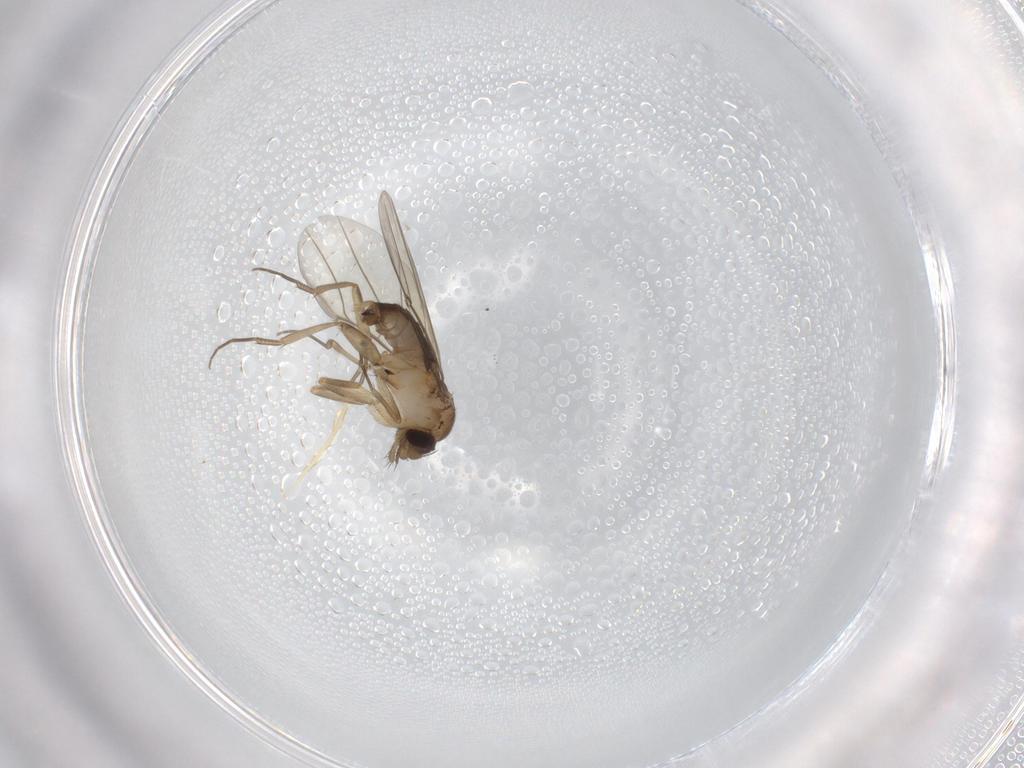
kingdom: Animalia
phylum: Arthropoda
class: Insecta
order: Diptera
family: Phoridae
